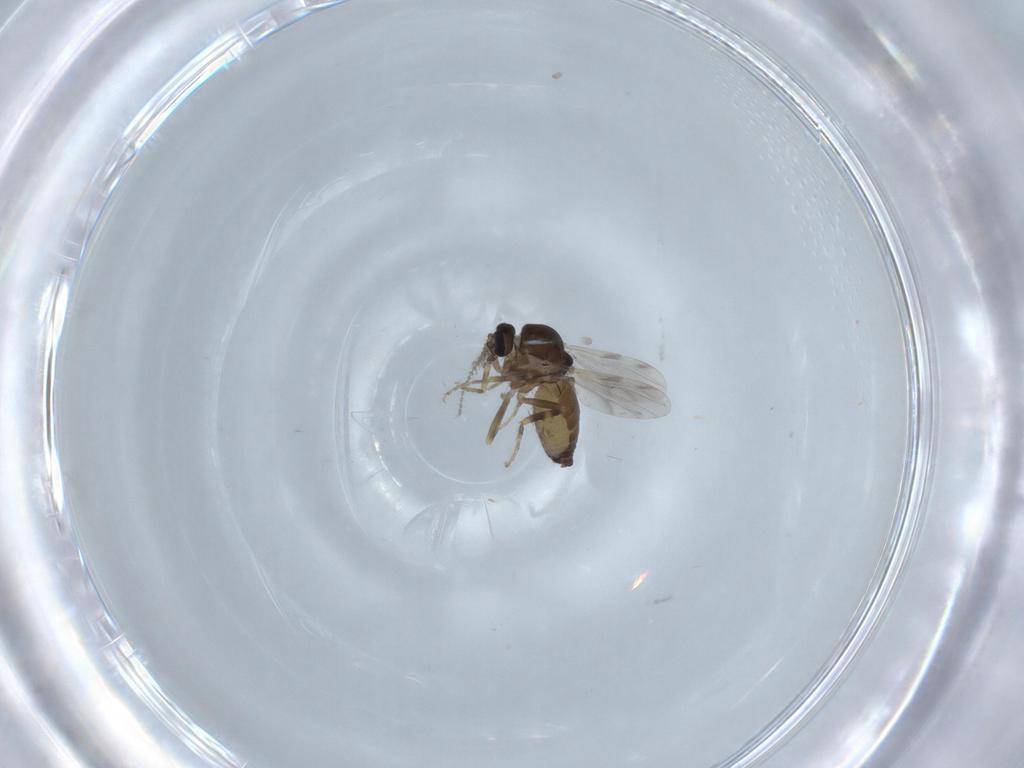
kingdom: Animalia
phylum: Arthropoda
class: Insecta
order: Diptera
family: Ceratopogonidae
